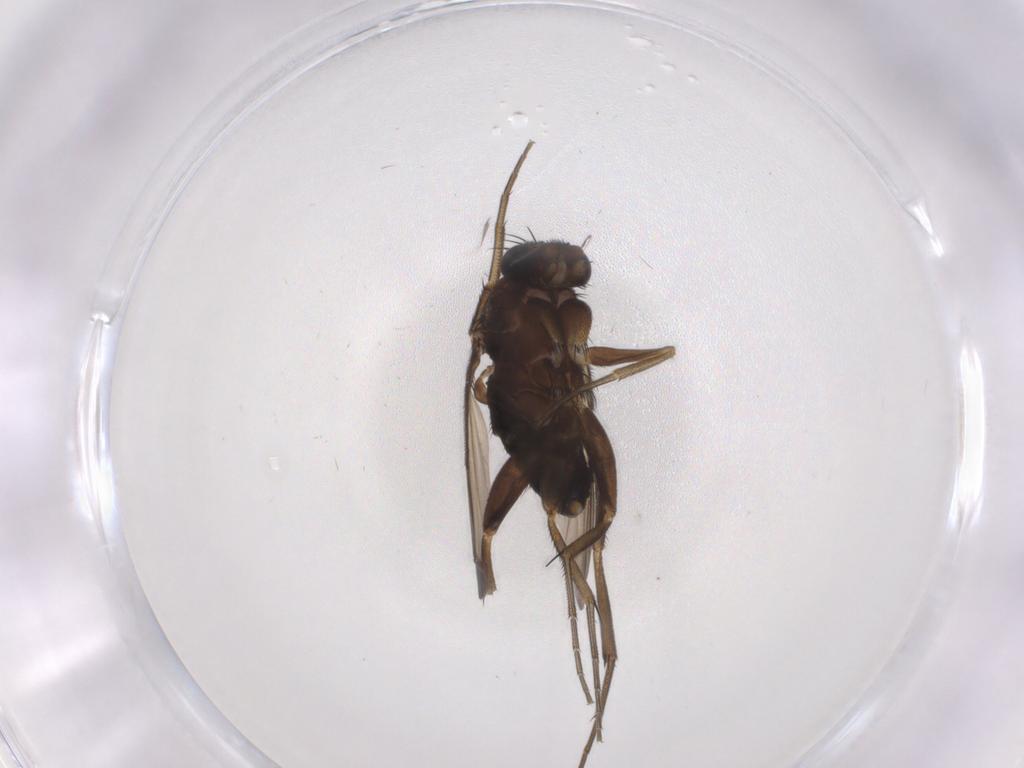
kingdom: Animalia
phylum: Arthropoda
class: Insecta
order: Diptera
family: Phoridae
